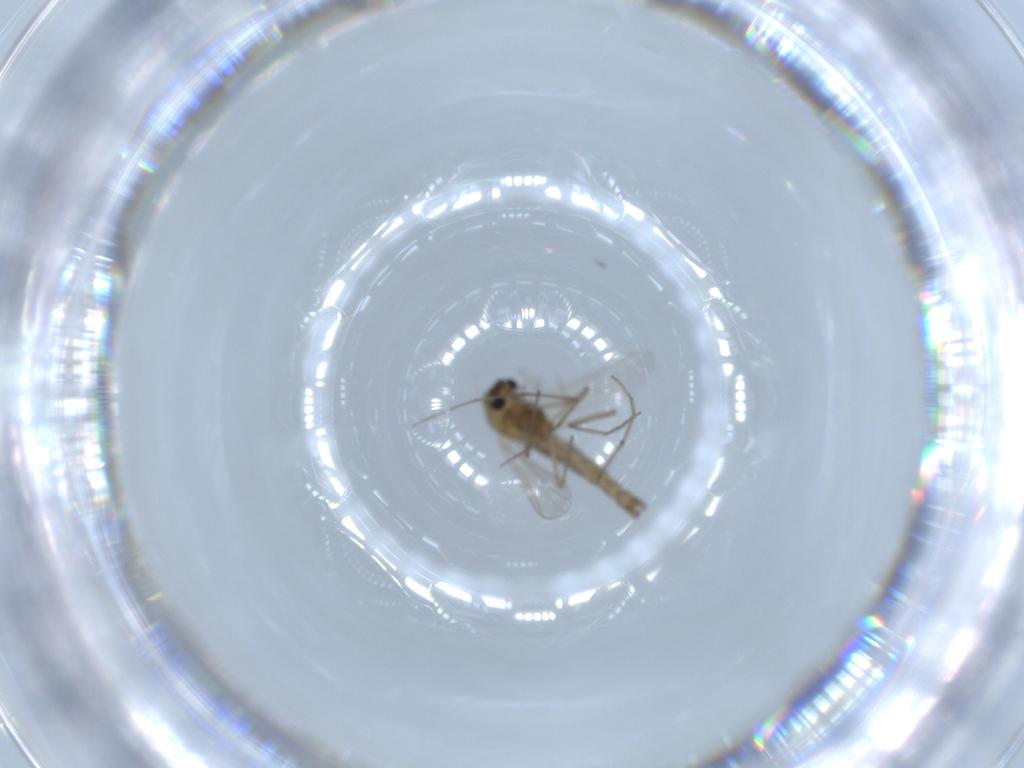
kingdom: Animalia
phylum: Arthropoda
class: Insecta
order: Diptera
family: Chironomidae
